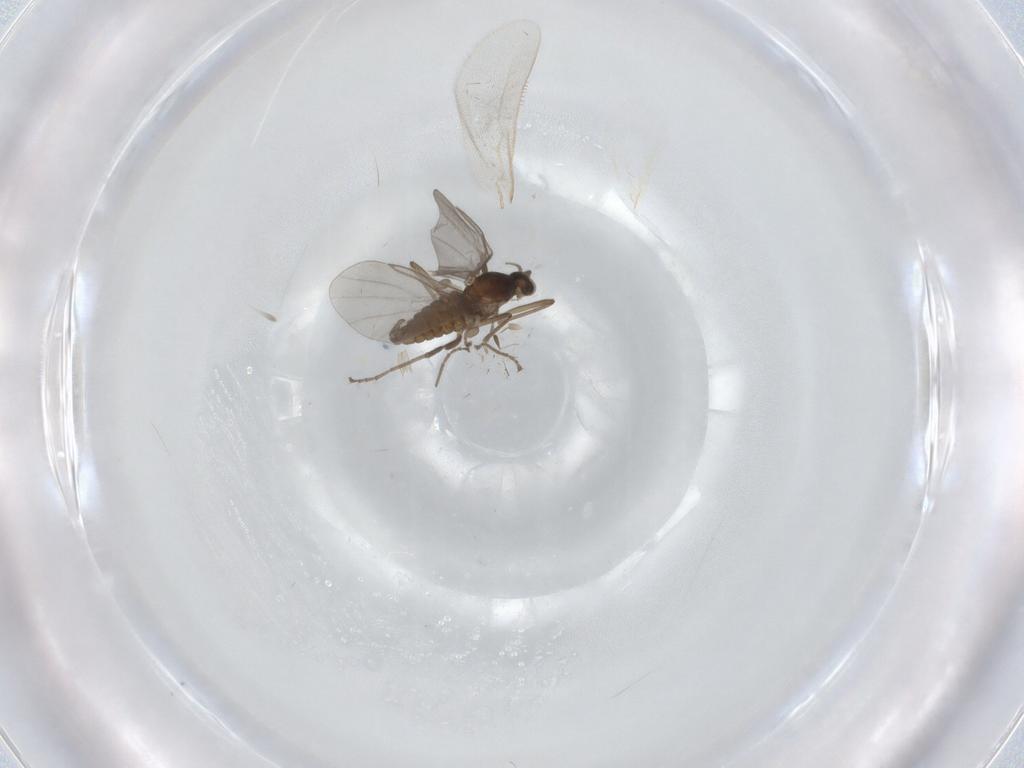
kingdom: Animalia
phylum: Arthropoda
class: Insecta
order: Diptera
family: Cecidomyiidae
